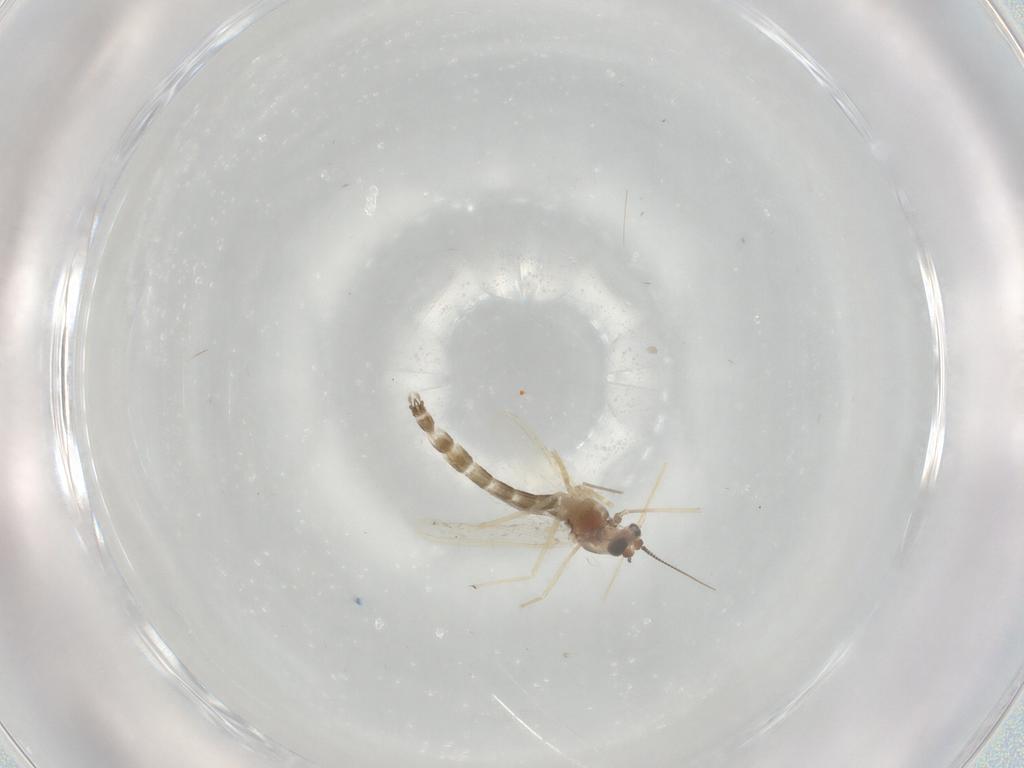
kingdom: Animalia
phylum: Arthropoda
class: Insecta
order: Diptera
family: Chironomidae
